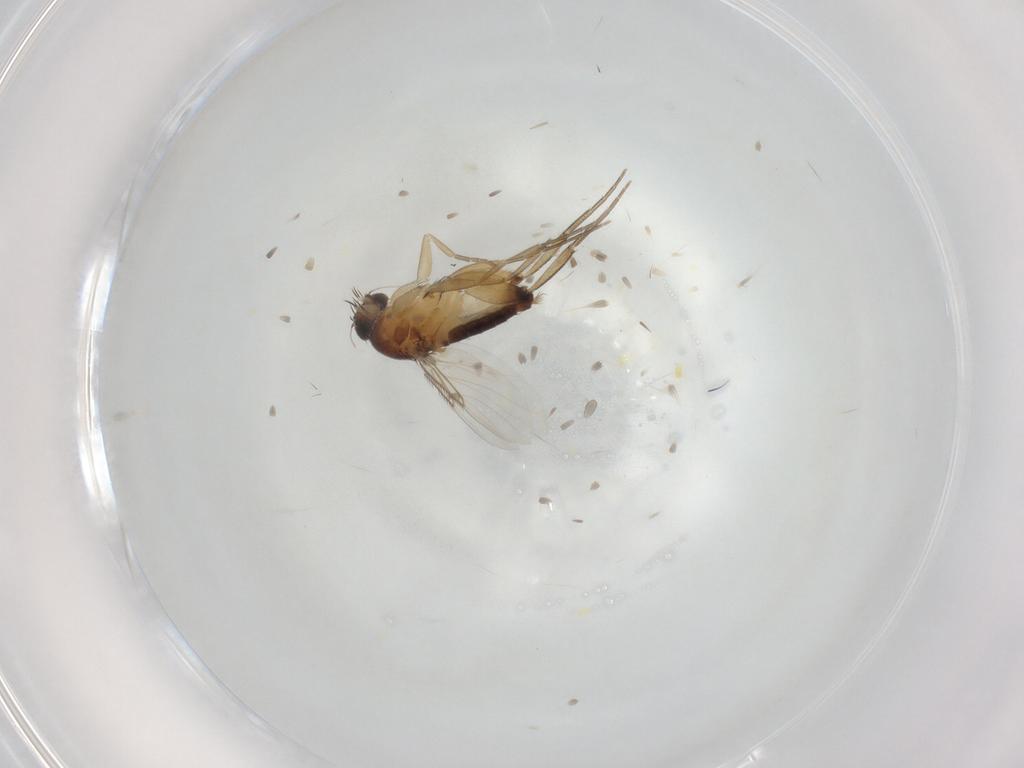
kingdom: Animalia
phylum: Arthropoda
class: Insecta
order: Diptera
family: Phoridae
